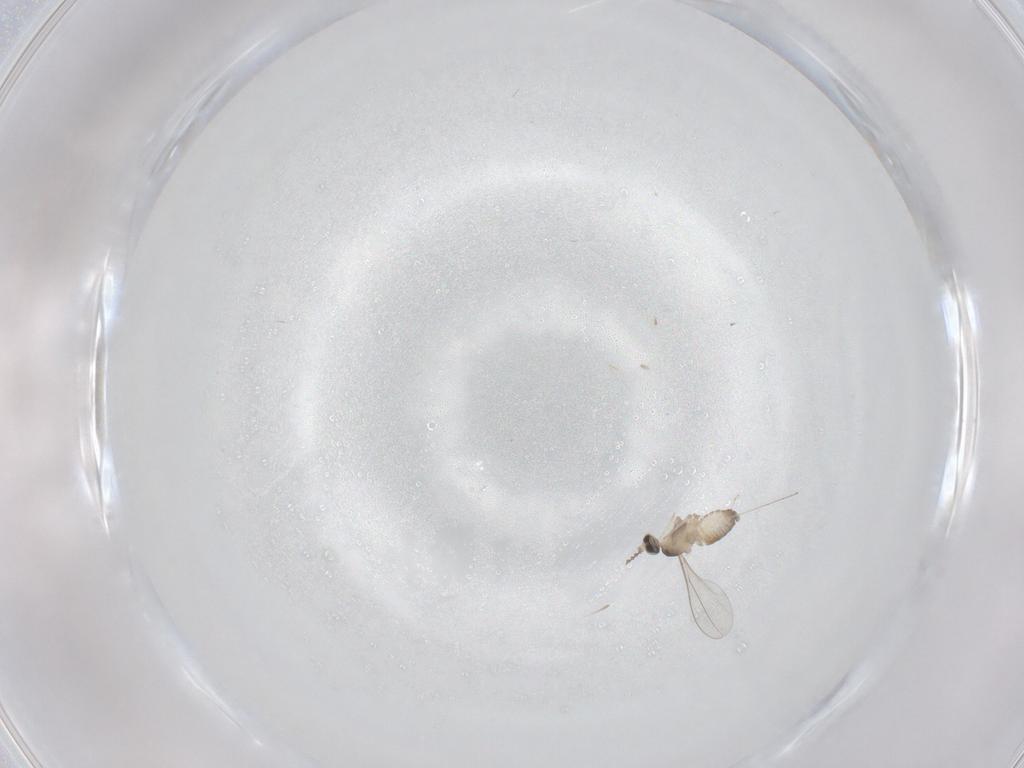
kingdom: Animalia
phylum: Arthropoda
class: Insecta
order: Diptera
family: Cecidomyiidae
